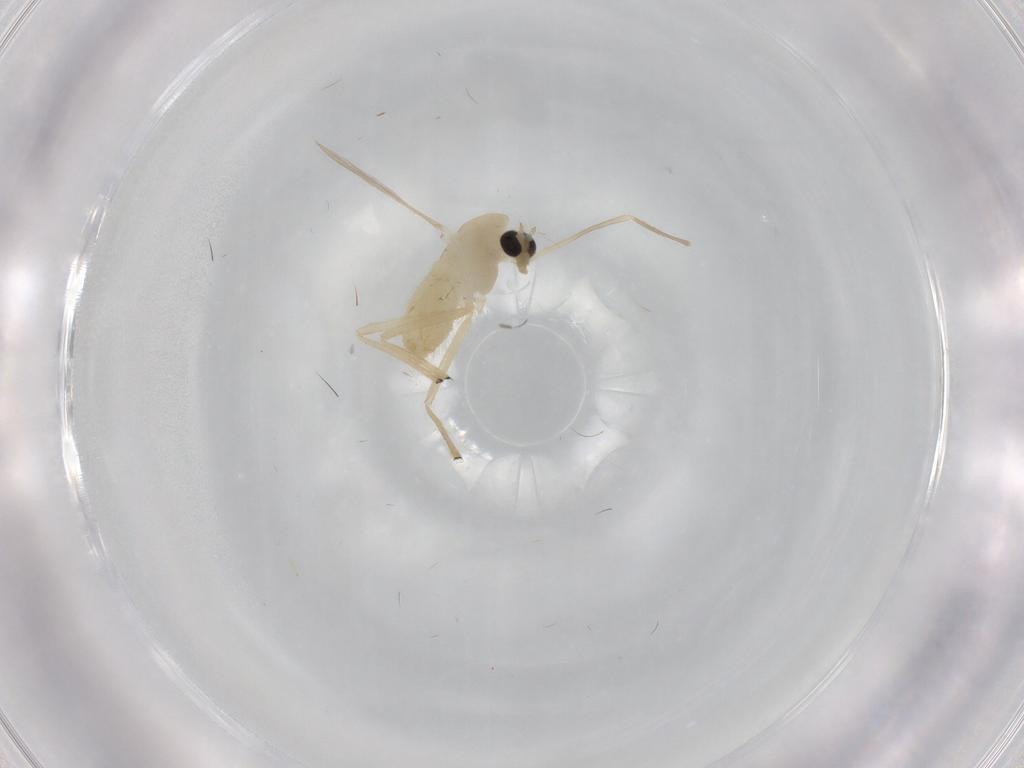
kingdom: Animalia
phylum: Arthropoda
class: Insecta
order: Diptera
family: Chironomidae
